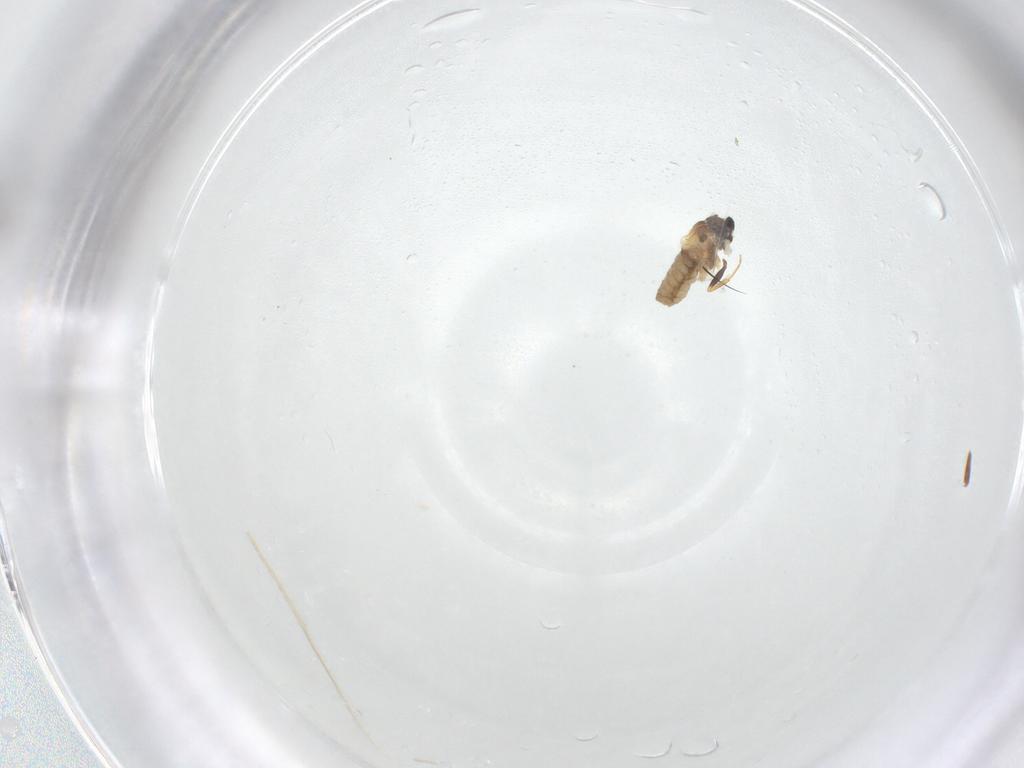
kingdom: Animalia
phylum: Arthropoda
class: Insecta
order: Diptera
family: Cecidomyiidae
